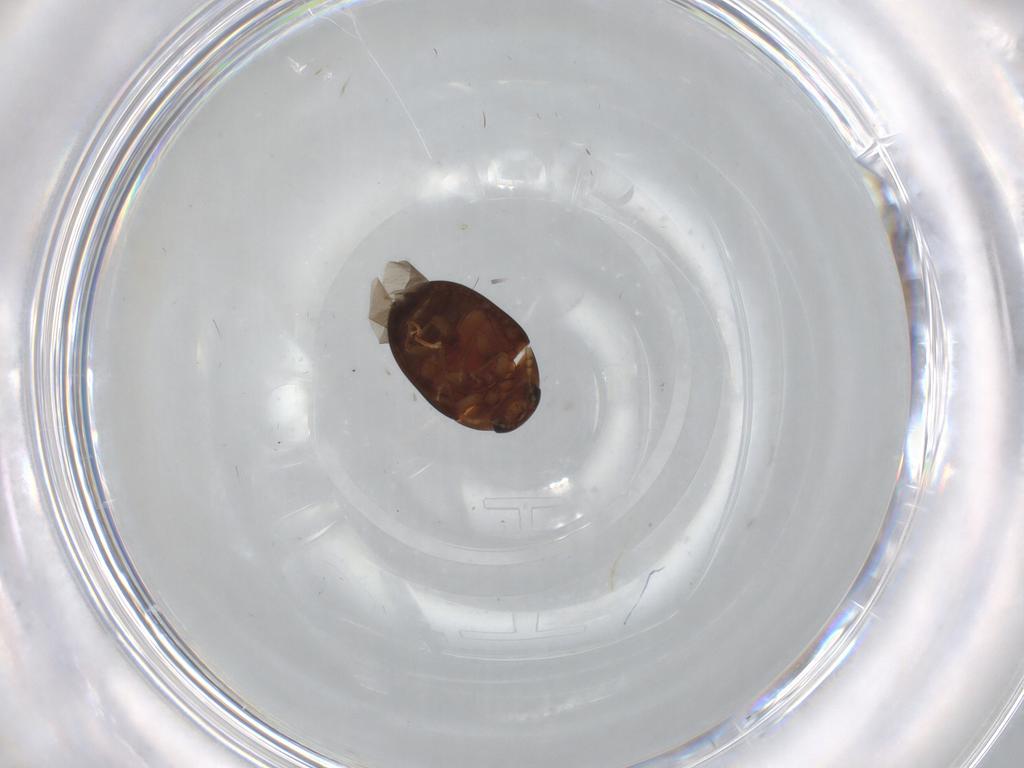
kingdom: Animalia
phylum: Arthropoda
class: Insecta
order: Coleoptera
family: Chrysomelidae
